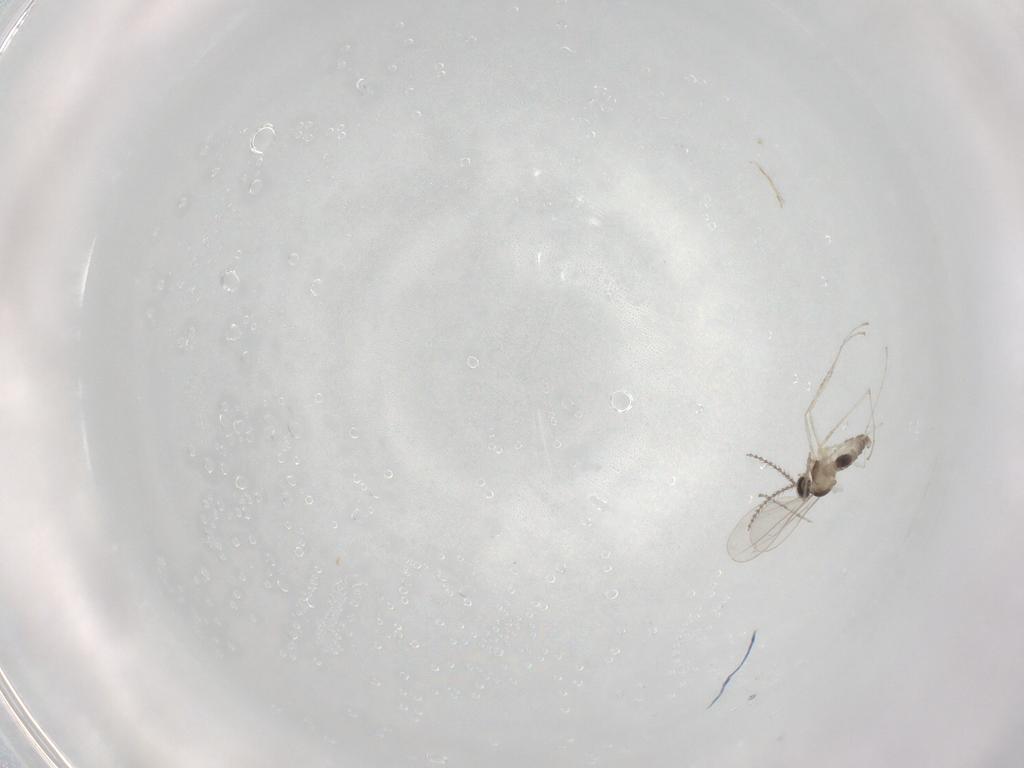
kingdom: Animalia
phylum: Arthropoda
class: Insecta
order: Diptera
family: Cecidomyiidae
